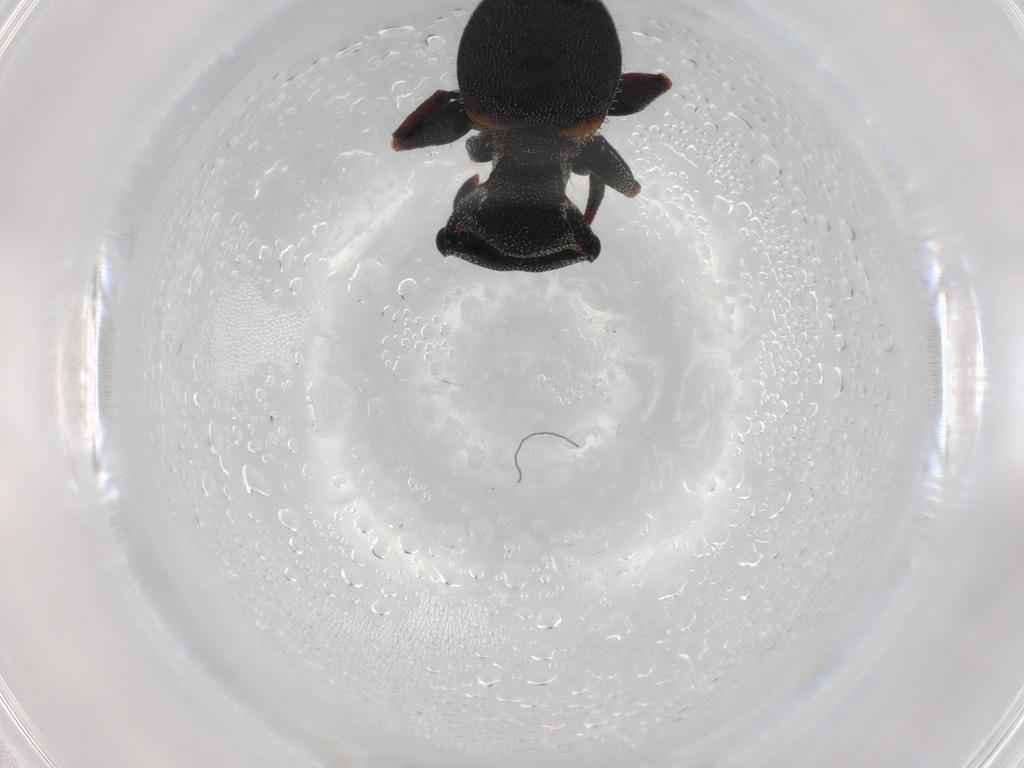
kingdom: Animalia
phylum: Arthropoda
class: Insecta
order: Hymenoptera
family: Formicidae
